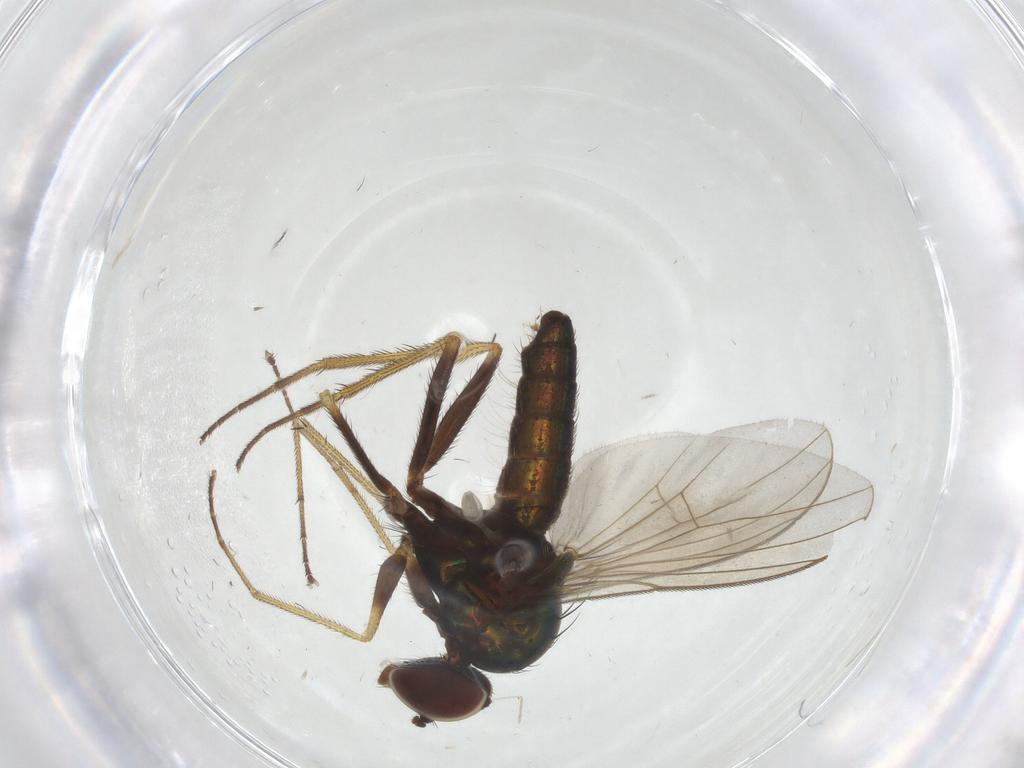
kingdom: Animalia
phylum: Arthropoda
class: Insecta
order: Diptera
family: Dolichopodidae
